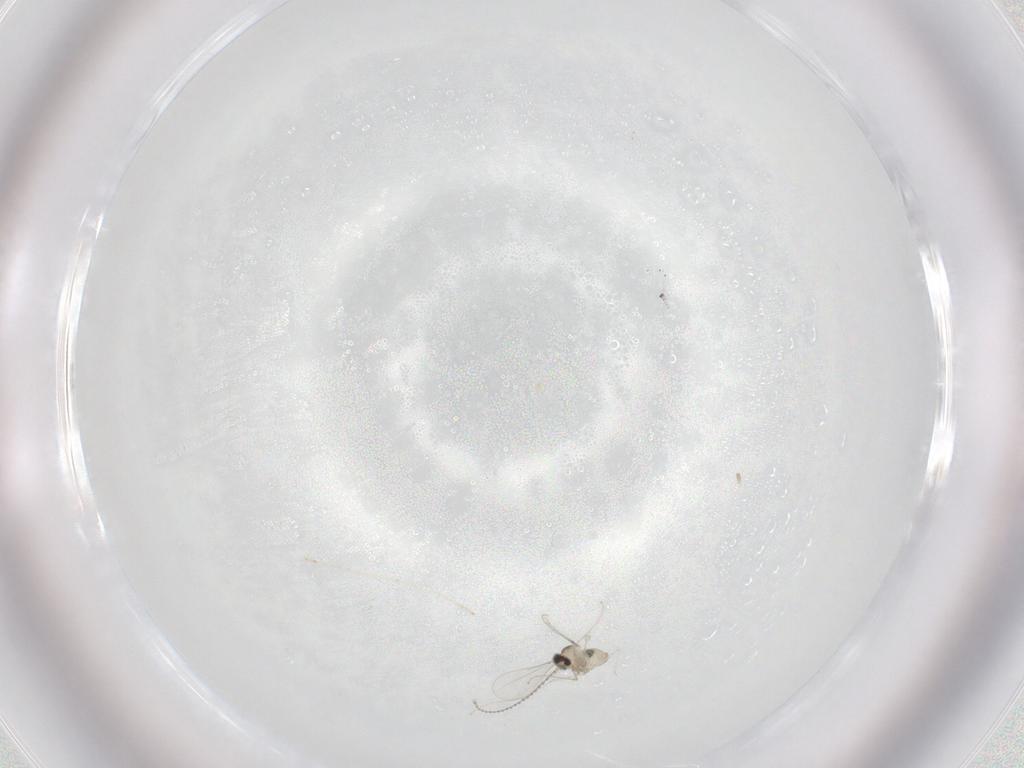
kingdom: Animalia
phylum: Arthropoda
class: Insecta
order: Diptera
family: Cecidomyiidae
